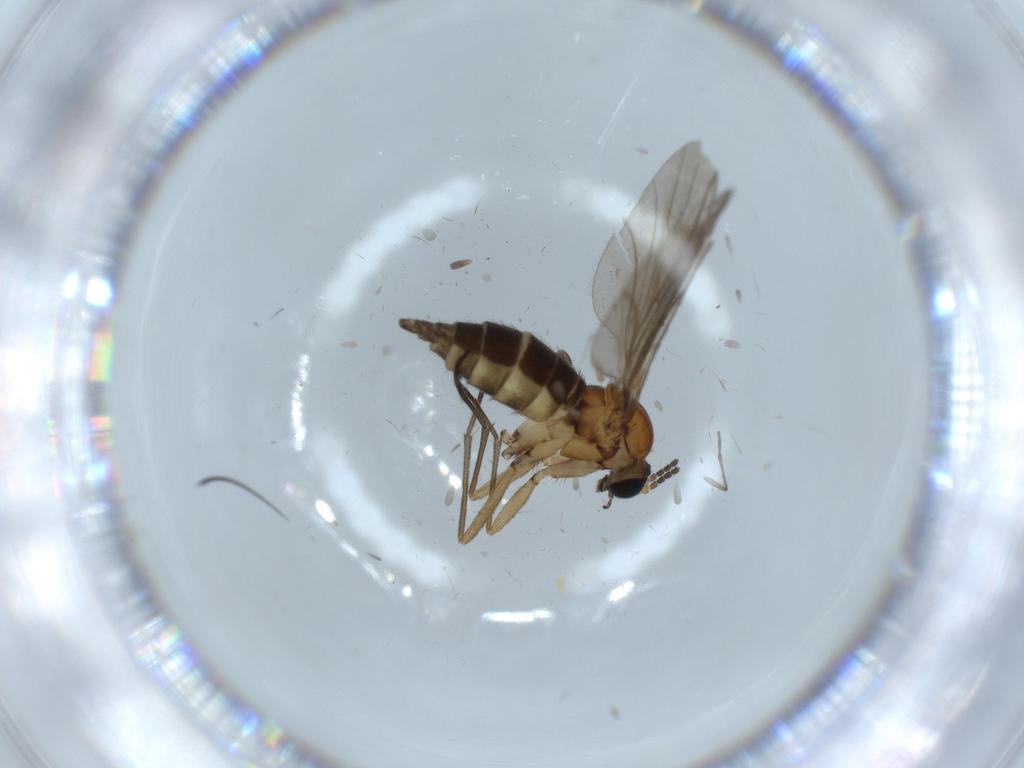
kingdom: Animalia
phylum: Arthropoda
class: Insecta
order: Diptera
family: Sciaridae
